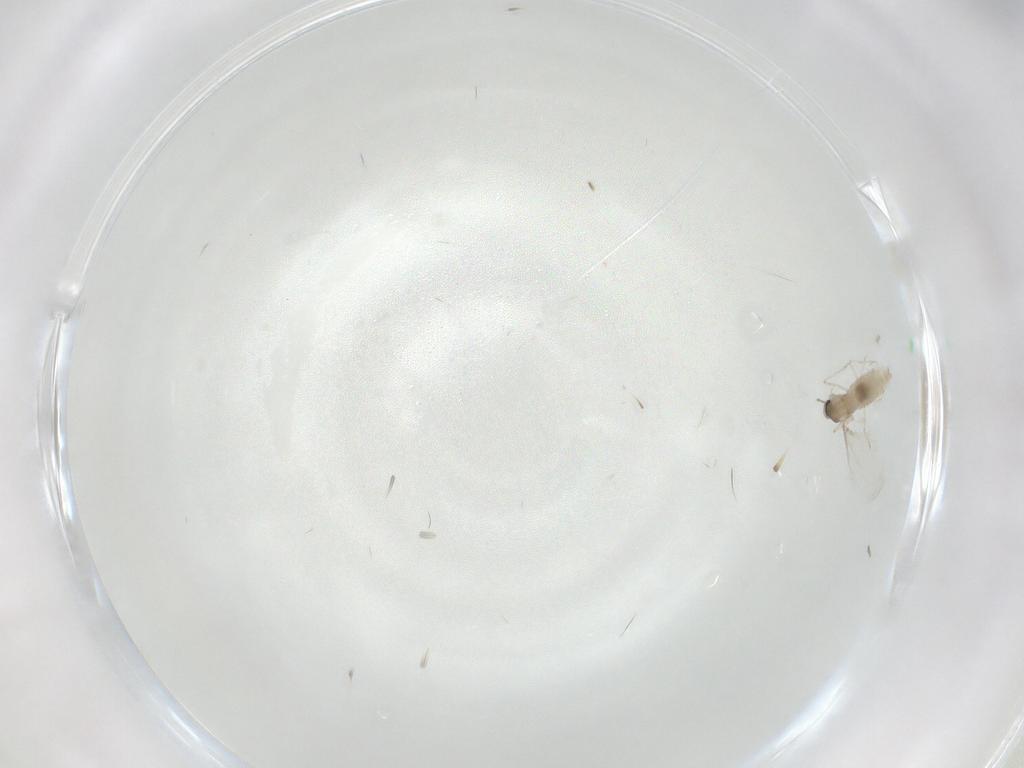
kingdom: Animalia
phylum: Arthropoda
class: Insecta
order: Diptera
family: Cecidomyiidae
